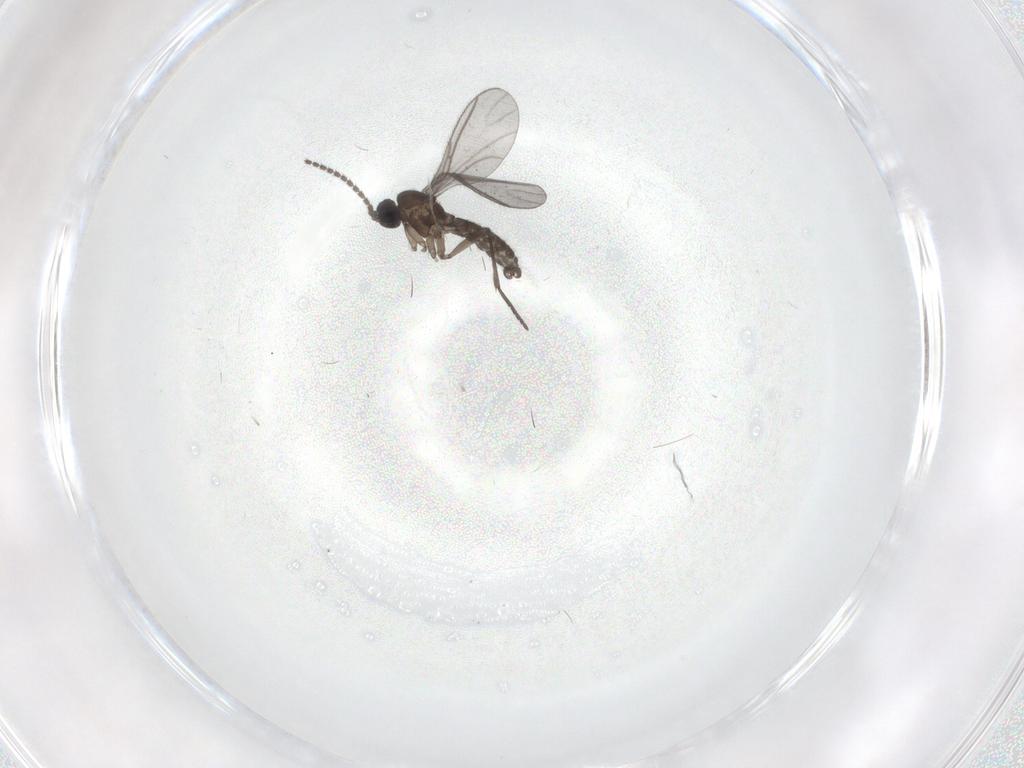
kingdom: Animalia
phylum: Arthropoda
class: Insecta
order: Diptera
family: Limoniidae
